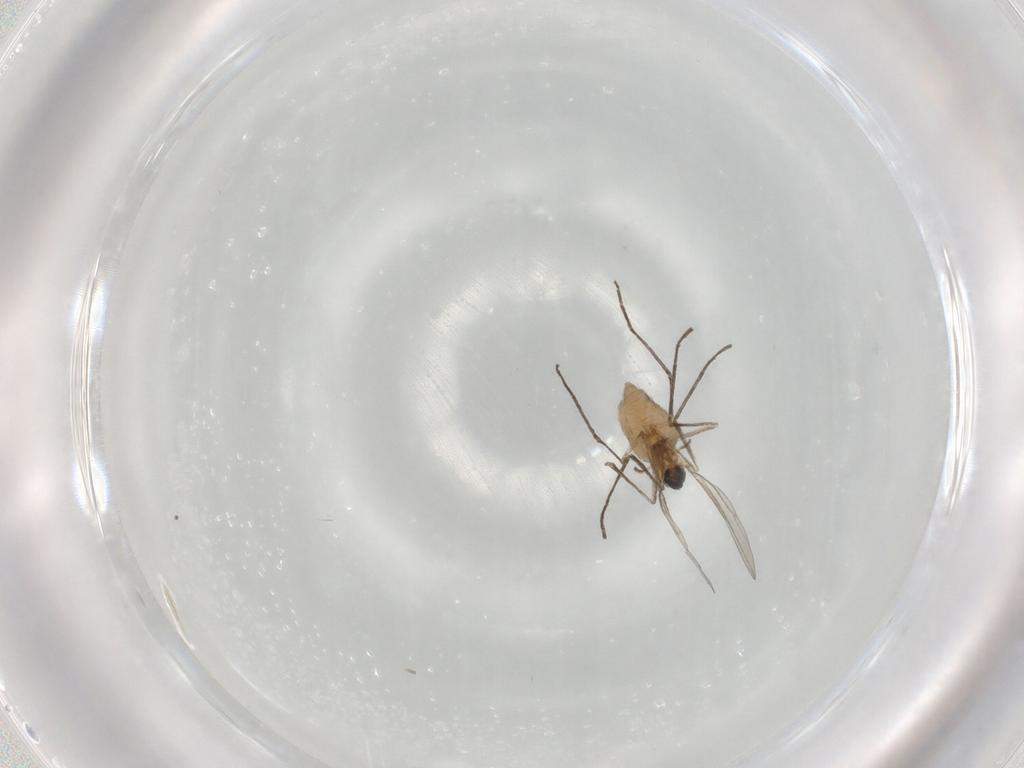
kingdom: Animalia
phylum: Arthropoda
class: Insecta
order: Diptera
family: Cecidomyiidae
